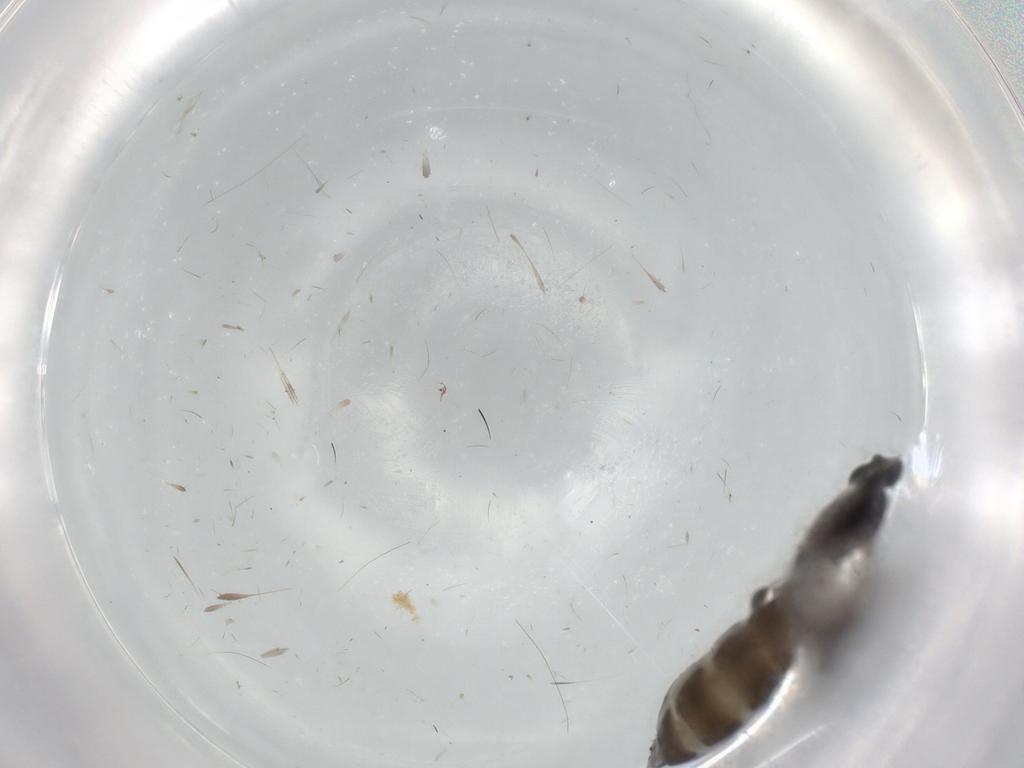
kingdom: Animalia
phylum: Arthropoda
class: Insecta
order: Diptera
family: Sciaridae
